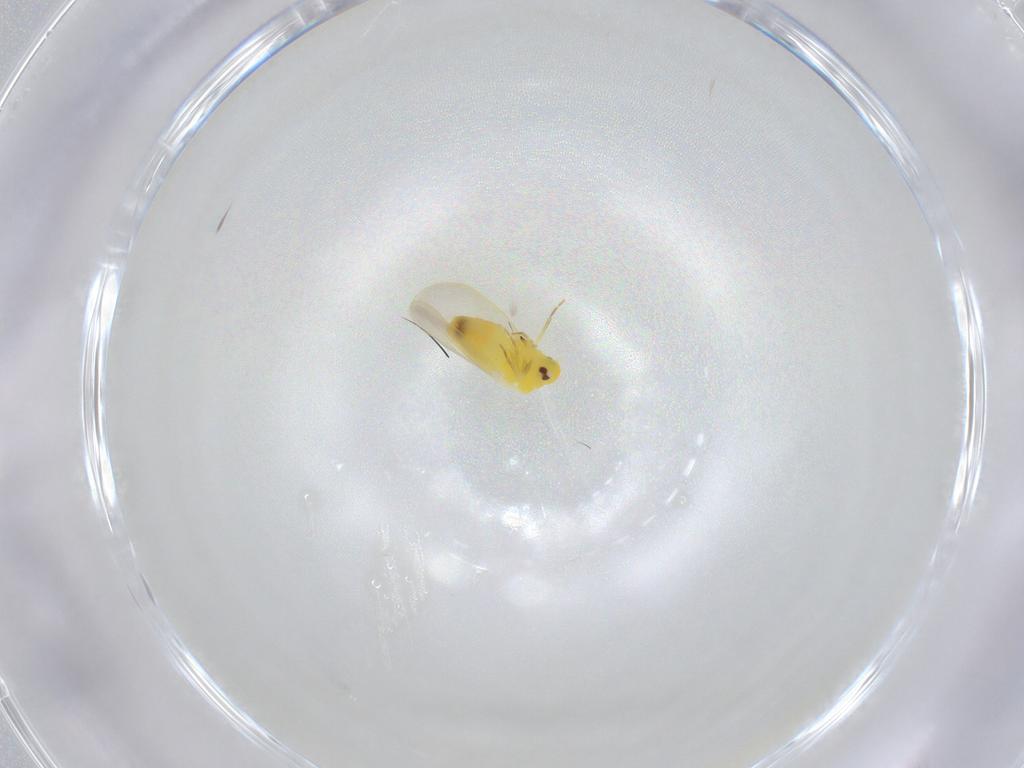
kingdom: Animalia
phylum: Arthropoda
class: Insecta
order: Hemiptera
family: Aleyrodidae
